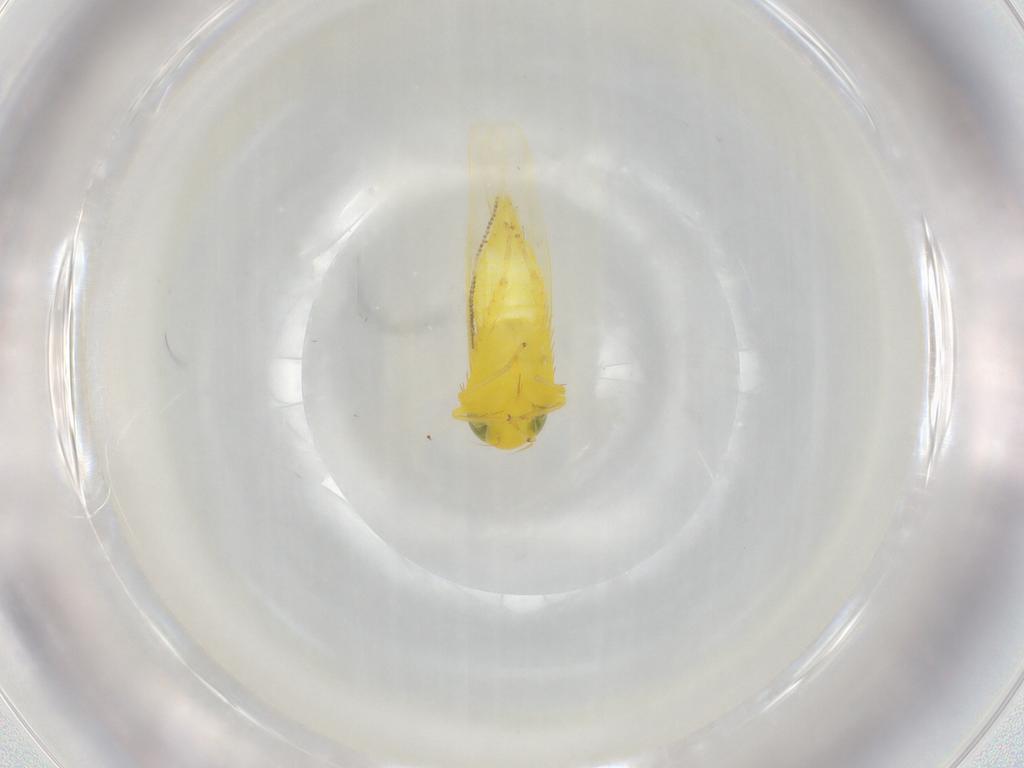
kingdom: Animalia
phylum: Arthropoda
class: Insecta
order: Hemiptera
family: Cicadellidae
